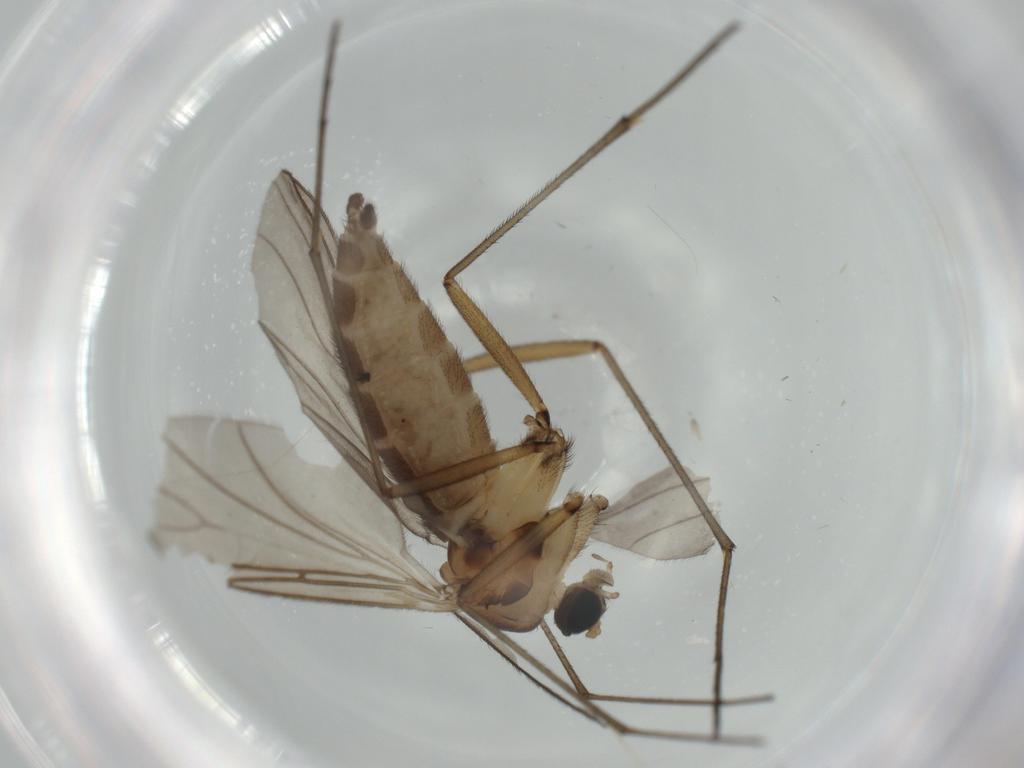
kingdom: Animalia
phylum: Arthropoda
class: Insecta
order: Diptera
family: Sciaridae
